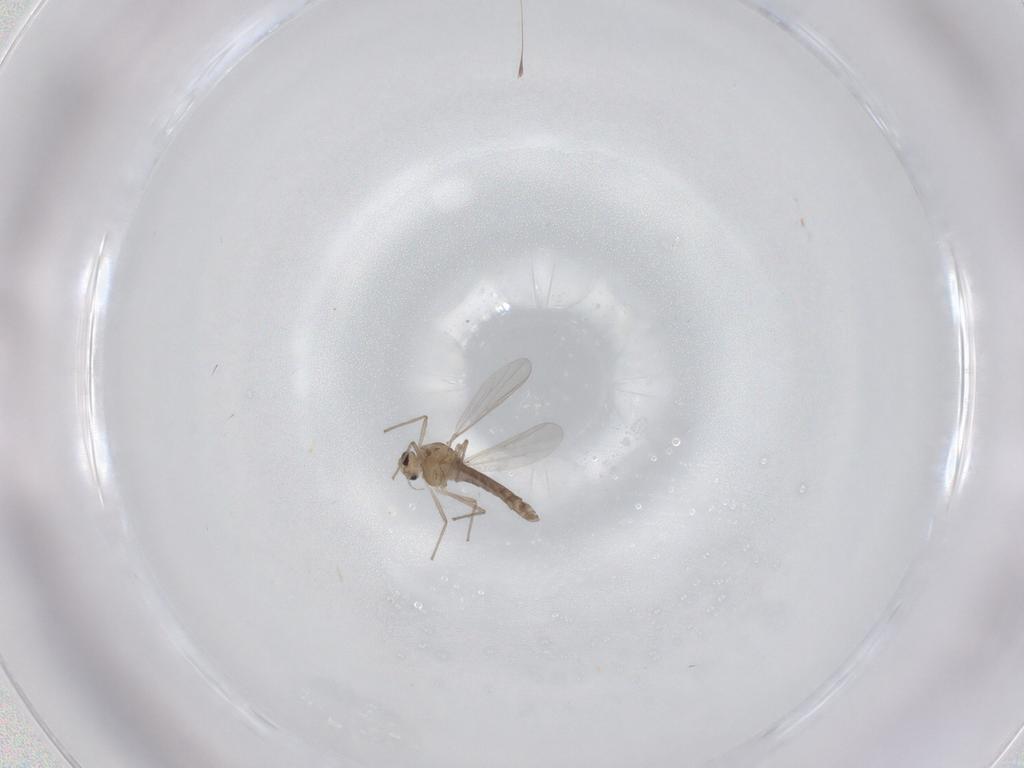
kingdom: Animalia
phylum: Arthropoda
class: Insecta
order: Diptera
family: Chironomidae
